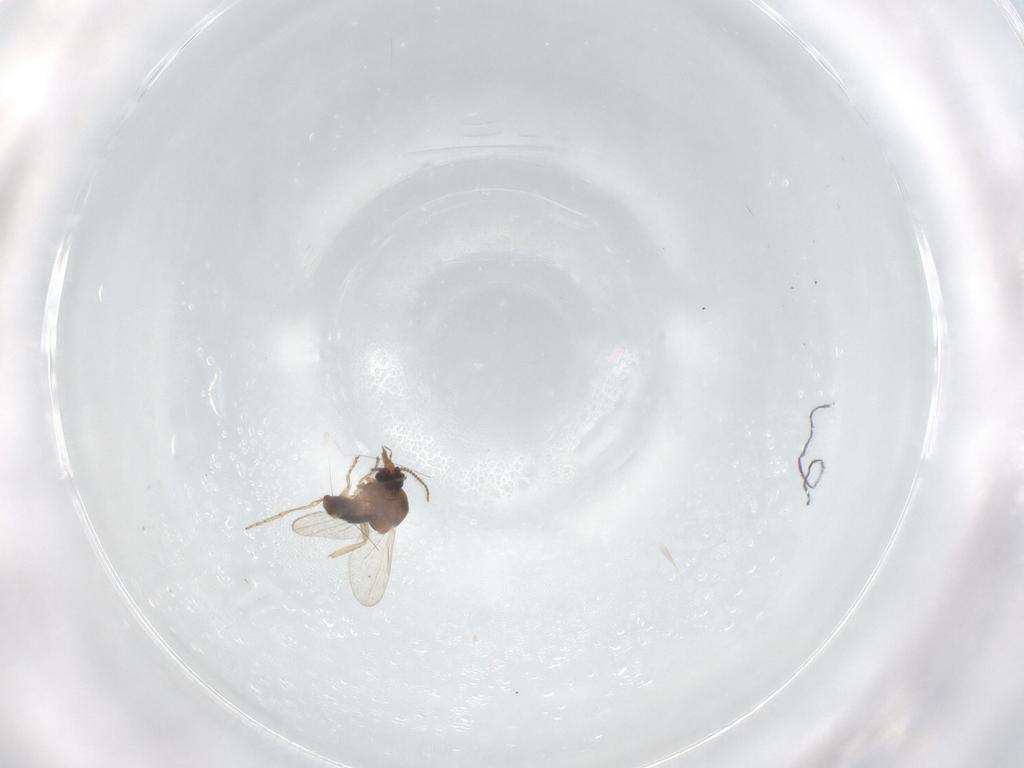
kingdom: Animalia
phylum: Arthropoda
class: Insecta
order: Diptera
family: Ceratopogonidae
